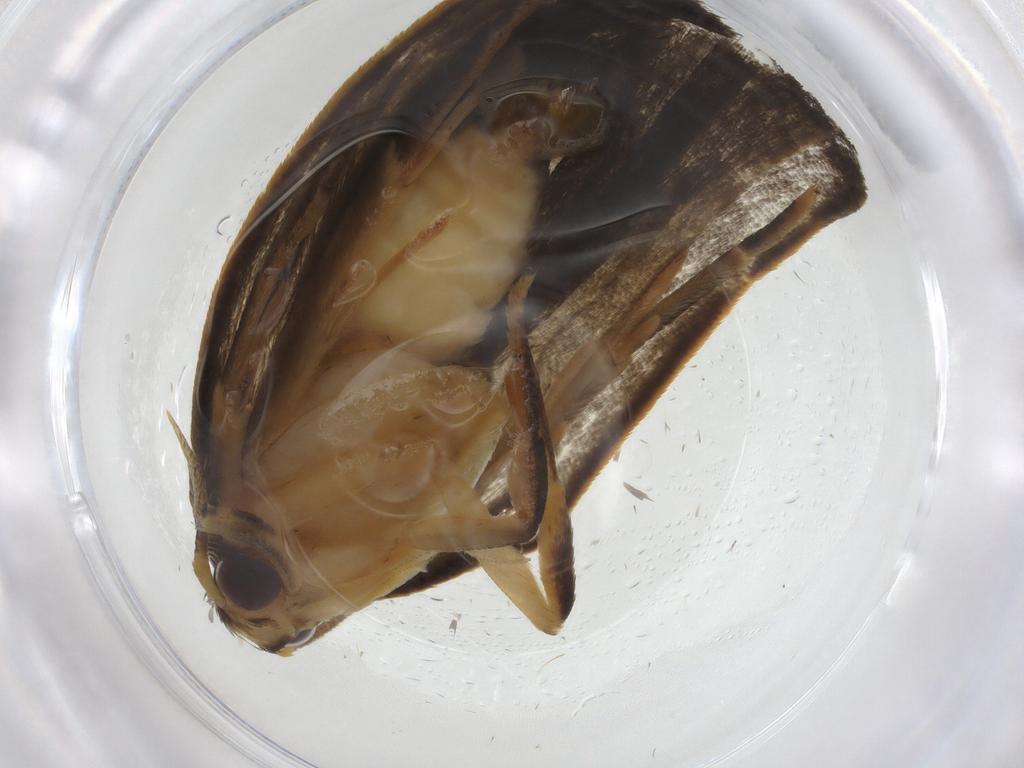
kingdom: Animalia
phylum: Arthropoda
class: Insecta
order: Lepidoptera
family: Depressariidae
